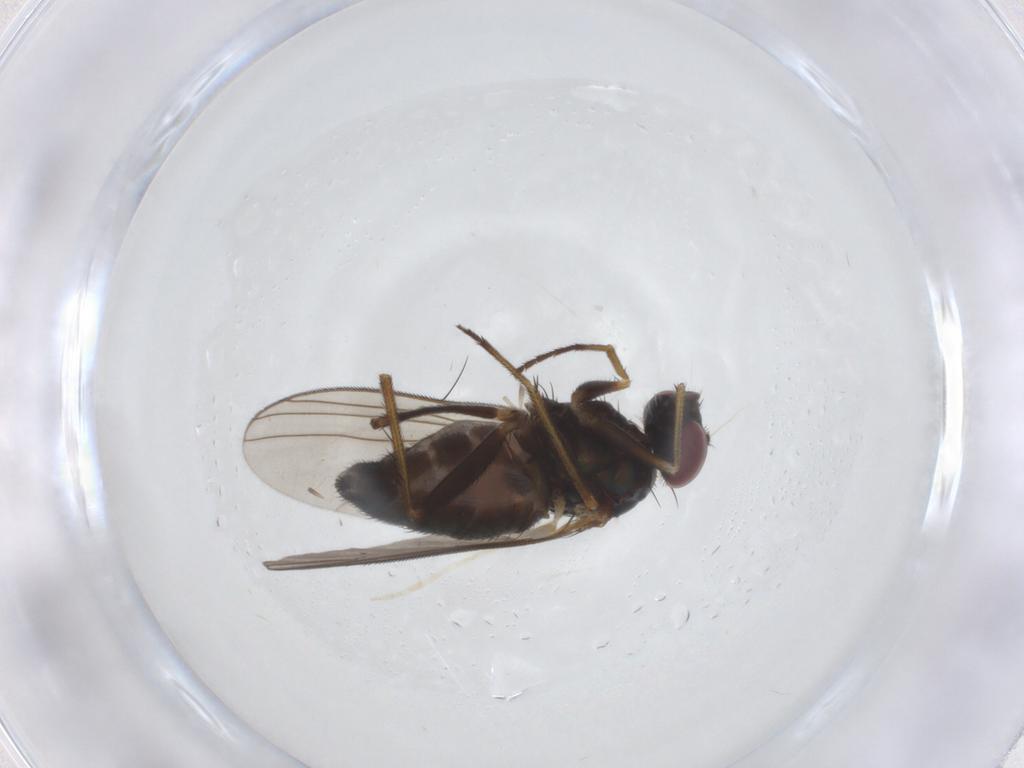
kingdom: Animalia
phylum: Arthropoda
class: Insecta
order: Diptera
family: Dolichopodidae
